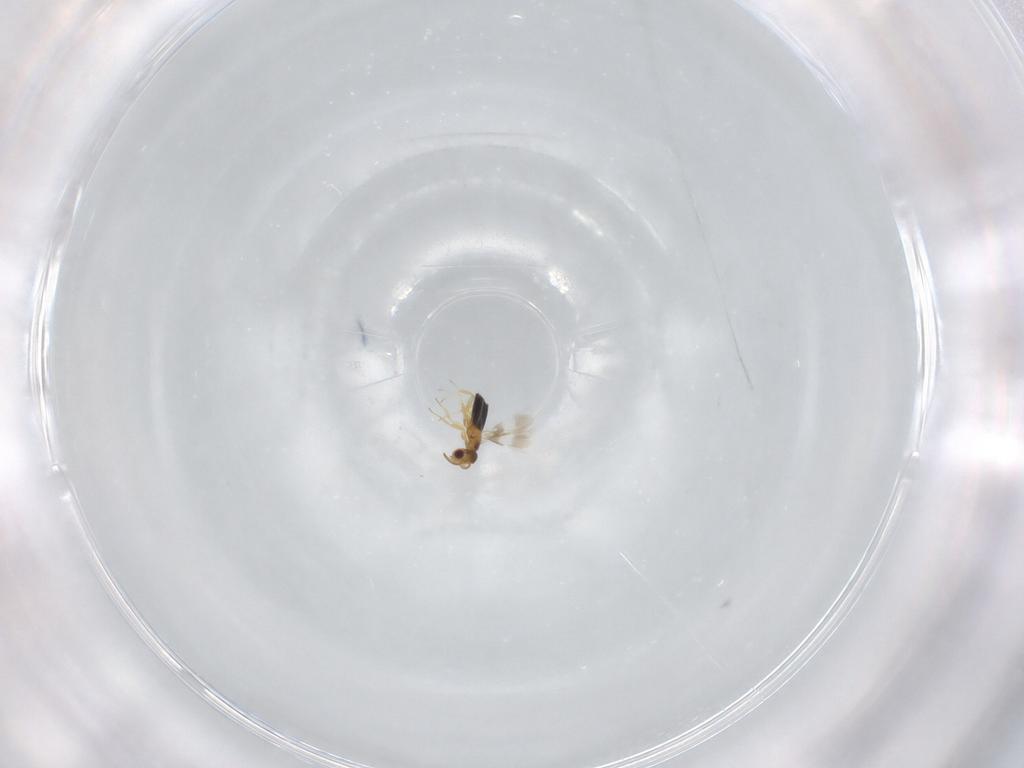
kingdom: Animalia
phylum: Arthropoda
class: Insecta
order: Hymenoptera
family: Signiphoridae
